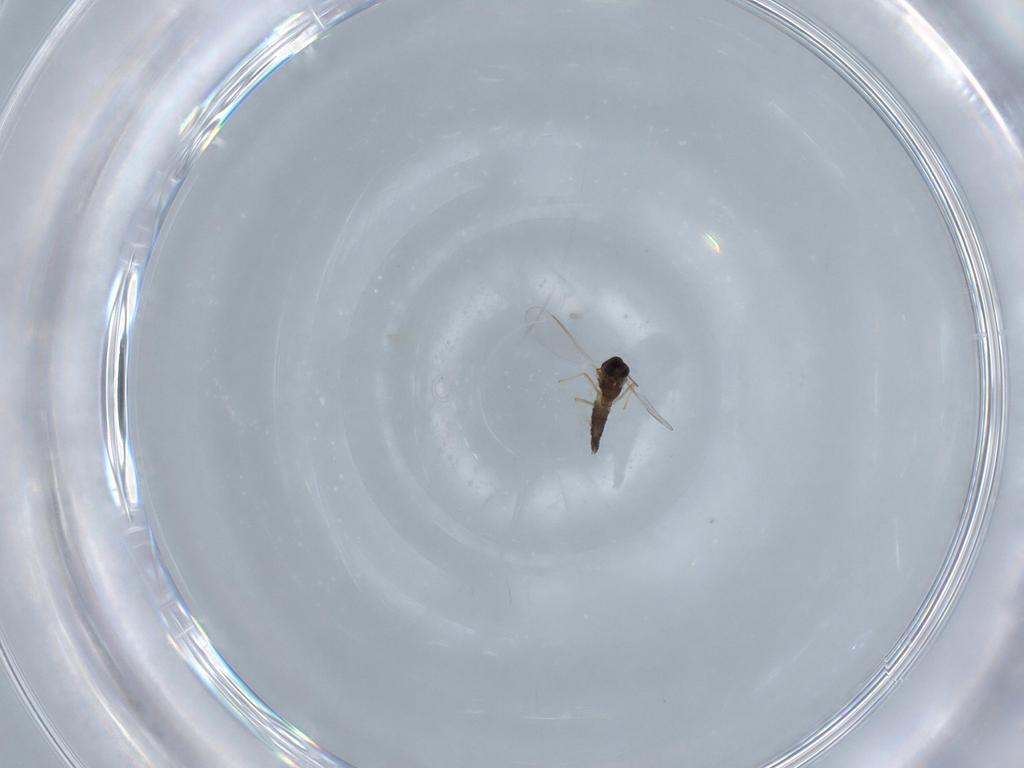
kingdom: Animalia
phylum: Arthropoda
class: Insecta
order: Diptera
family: Chironomidae
